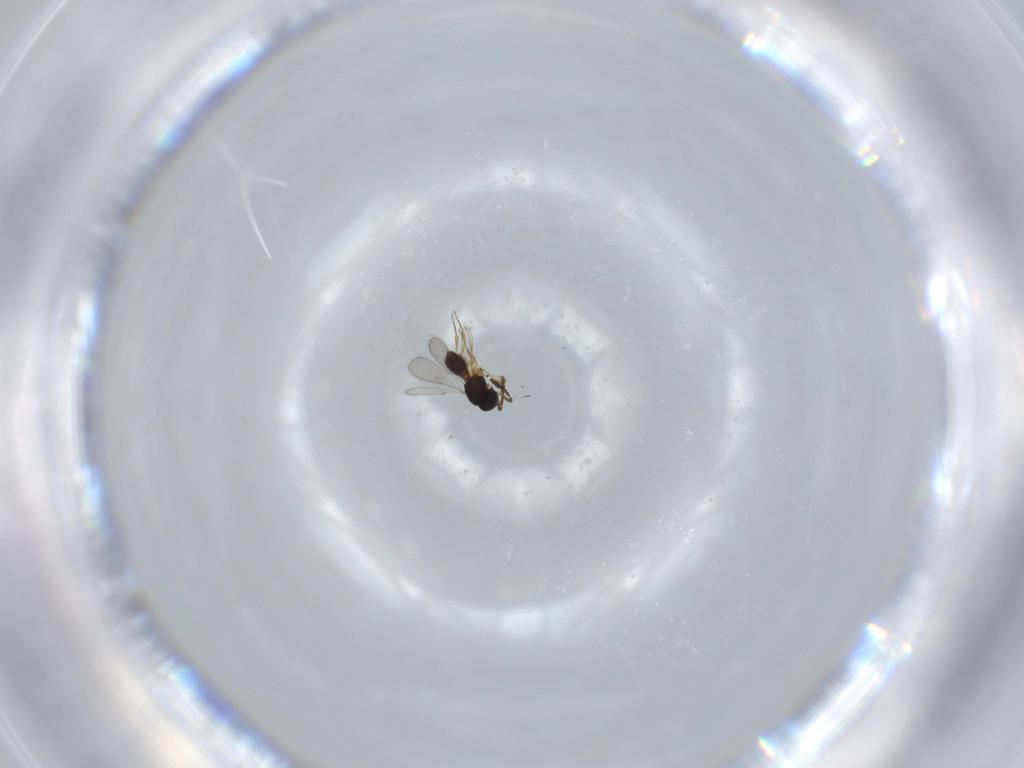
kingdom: Animalia
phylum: Arthropoda
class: Insecta
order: Hymenoptera
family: Scelionidae
